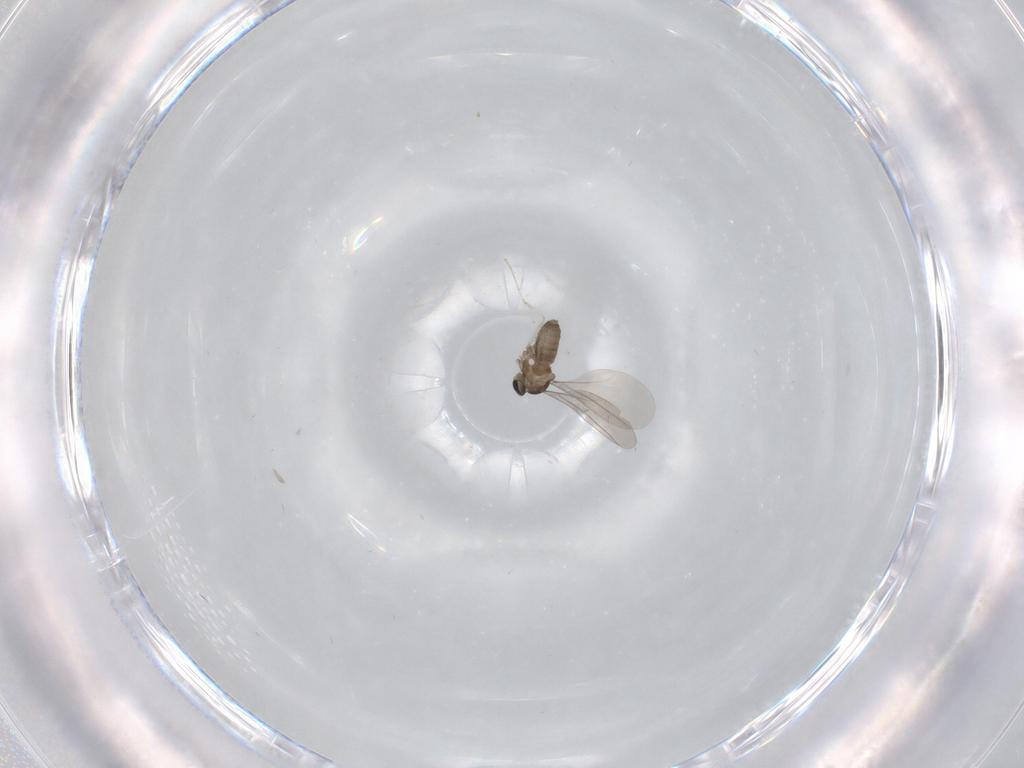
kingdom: Animalia
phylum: Arthropoda
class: Insecta
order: Diptera
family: Cecidomyiidae
